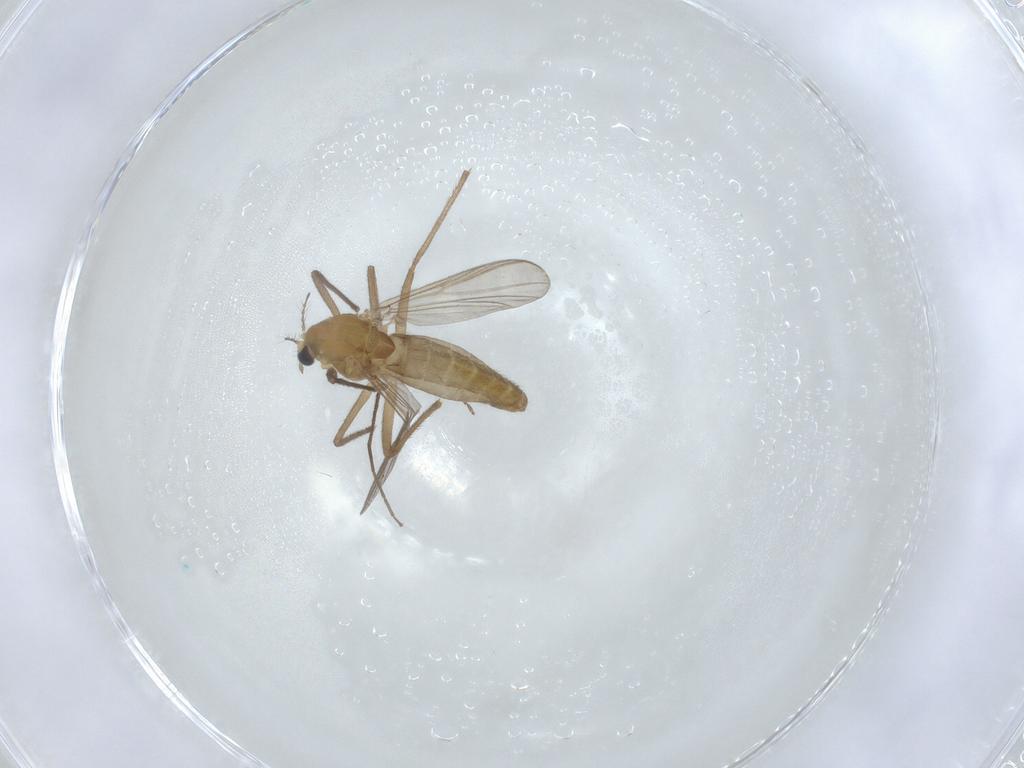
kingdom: Animalia
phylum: Arthropoda
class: Insecta
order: Diptera
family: Chironomidae
